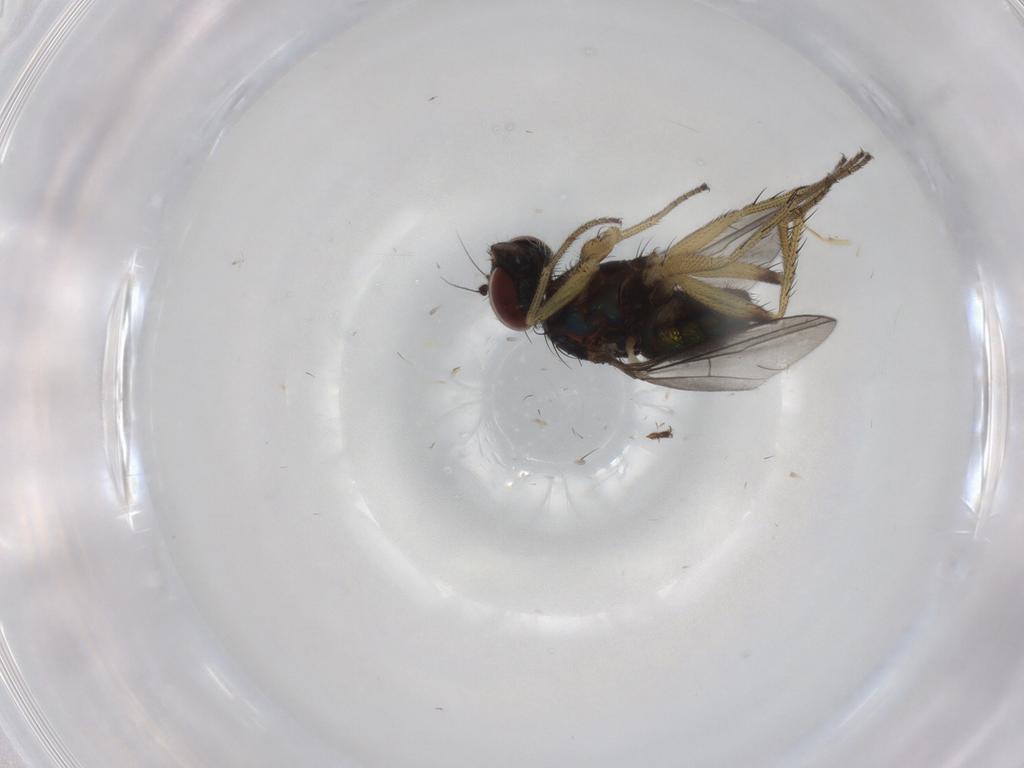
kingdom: Animalia
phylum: Arthropoda
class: Insecta
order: Diptera
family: Dolichopodidae
